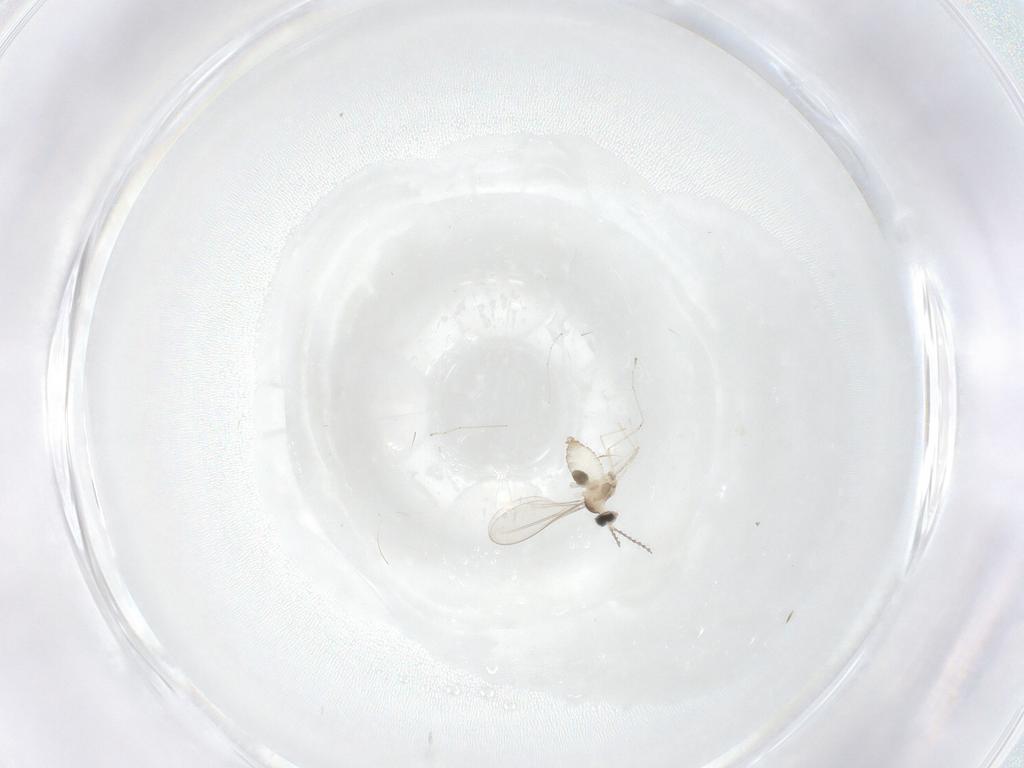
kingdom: Animalia
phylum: Arthropoda
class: Insecta
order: Diptera
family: Cecidomyiidae
